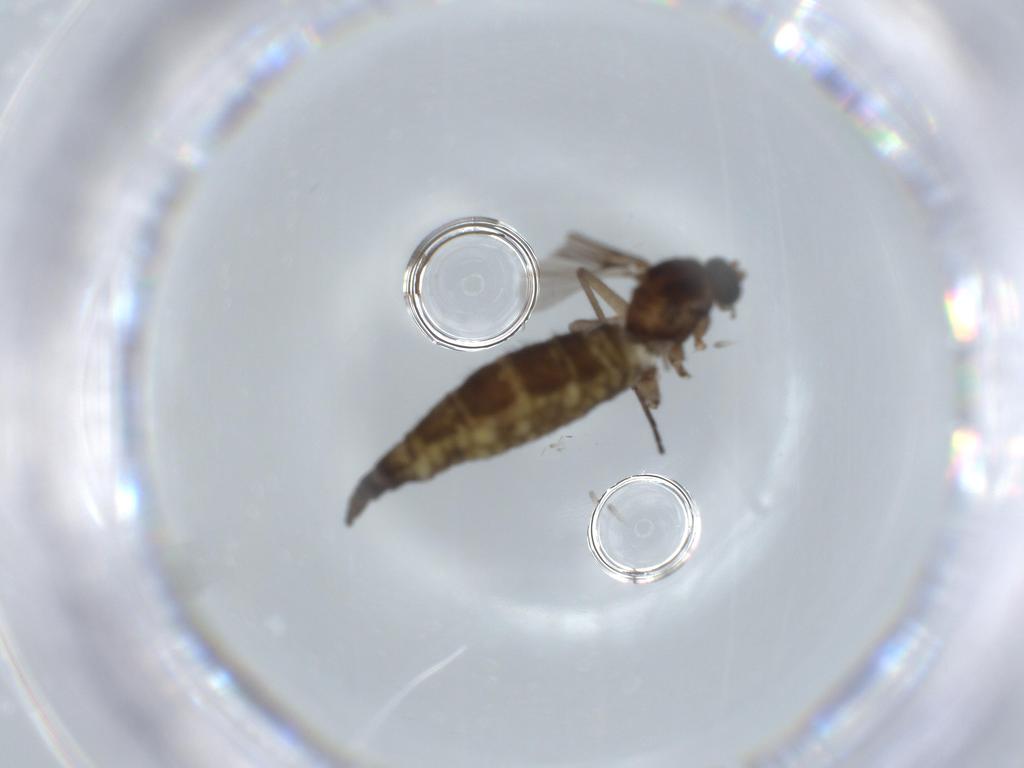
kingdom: Animalia
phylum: Arthropoda
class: Insecta
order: Diptera
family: Sciaridae
